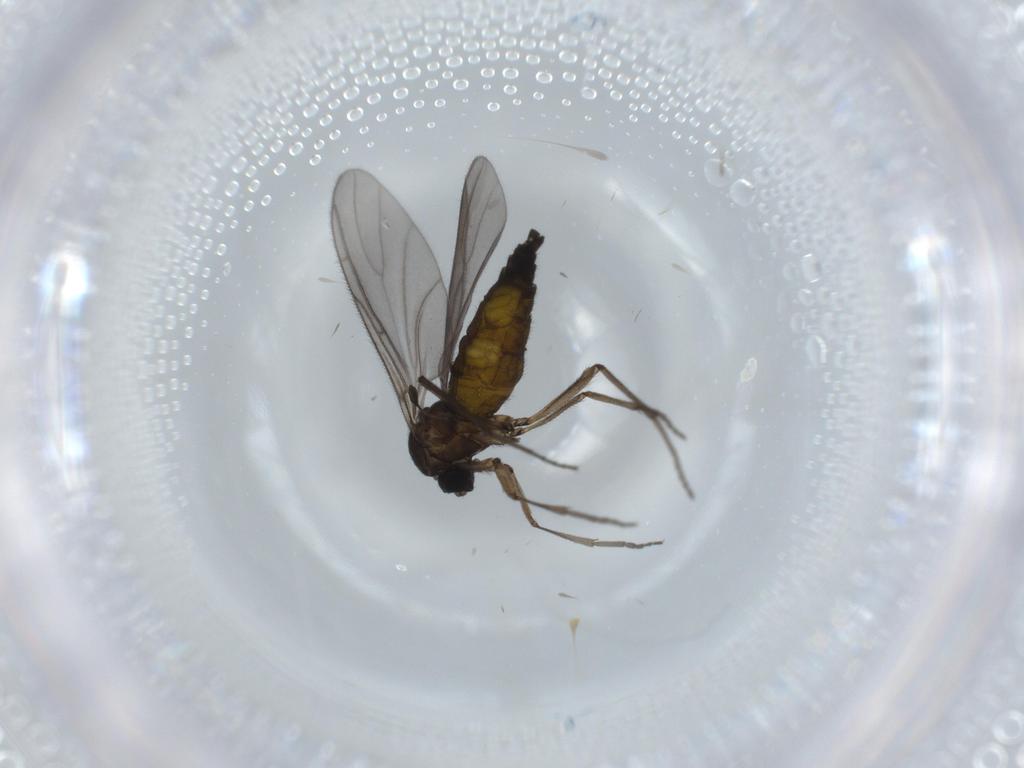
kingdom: Animalia
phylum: Arthropoda
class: Insecta
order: Diptera
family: Sciaridae
